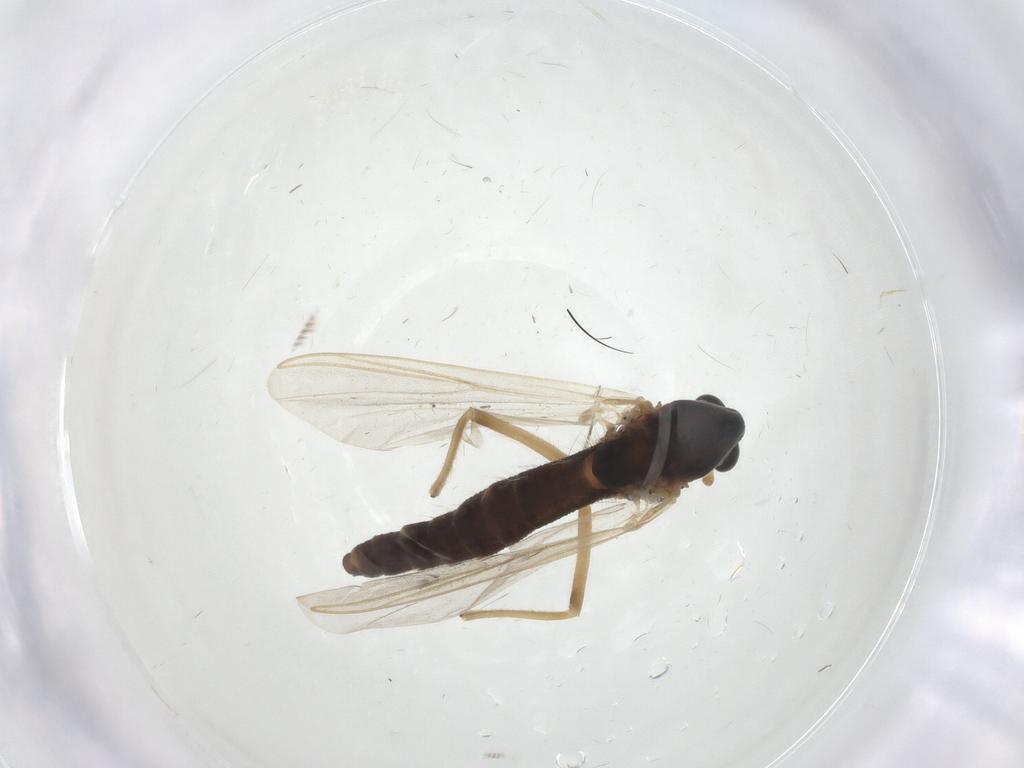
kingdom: Animalia
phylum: Arthropoda
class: Insecta
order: Diptera
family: Chironomidae
